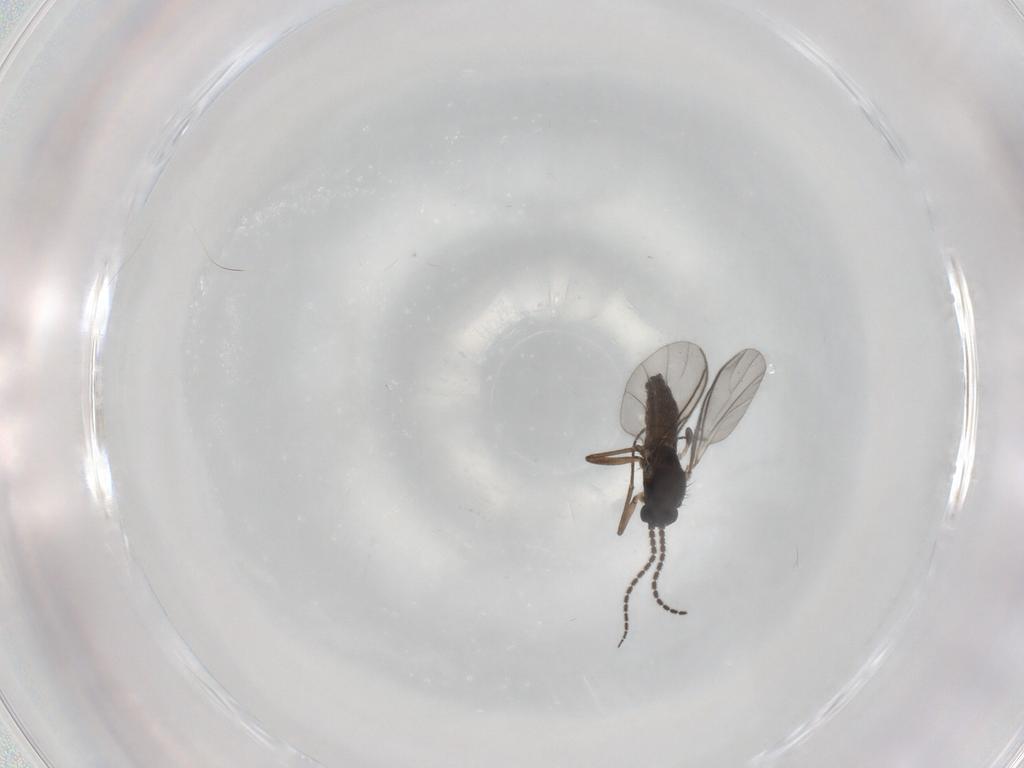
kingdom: Animalia
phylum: Arthropoda
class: Insecta
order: Diptera
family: Sciaridae
